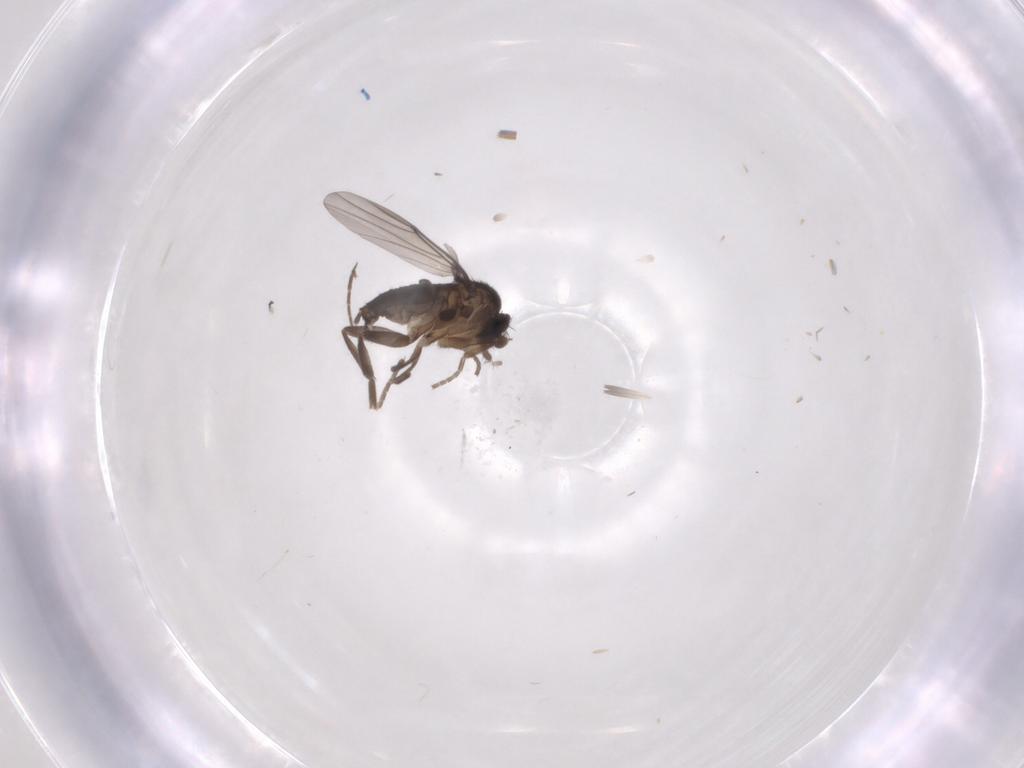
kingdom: Animalia
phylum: Arthropoda
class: Insecta
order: Diptera
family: Phoridae
